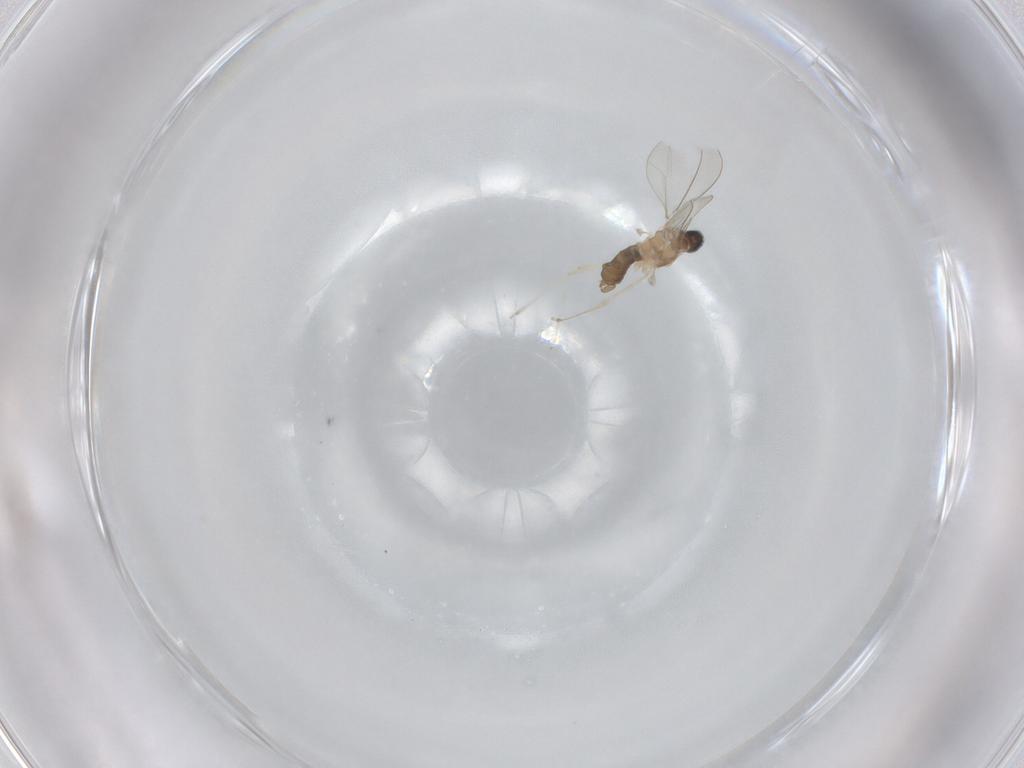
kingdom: Animalia
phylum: Arthropoda
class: Insecta
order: Diptera
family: Cecidomyiidae
